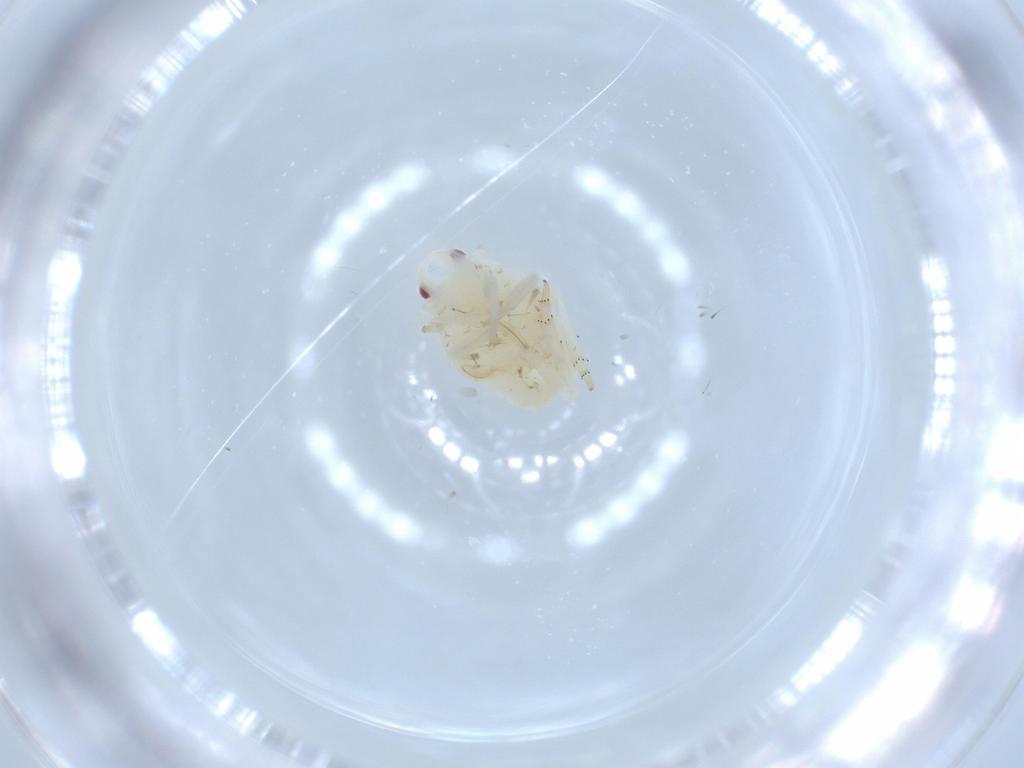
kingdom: Animalia
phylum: Arthropoda
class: Insecta
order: Hemiptera
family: Flatidae
